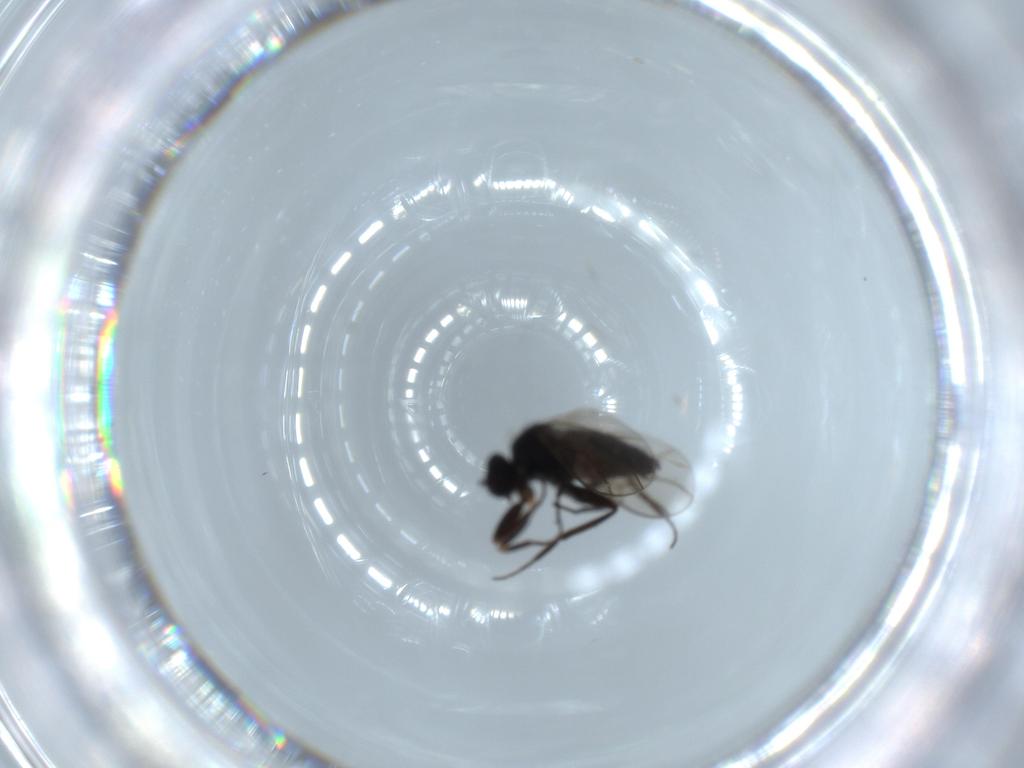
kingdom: Animalia
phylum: Arthropoda
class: Insecta
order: Diptera
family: Hybotidae
